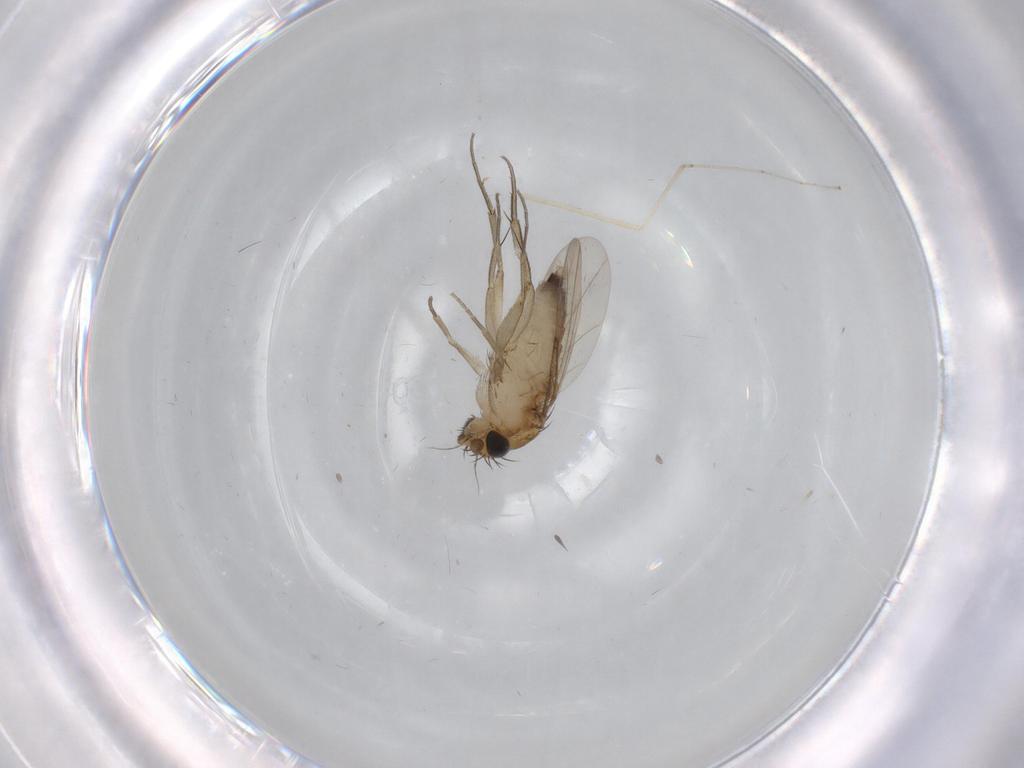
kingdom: Animalia
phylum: Arthropoda
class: Insecta
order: Diptera
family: Phoridae
